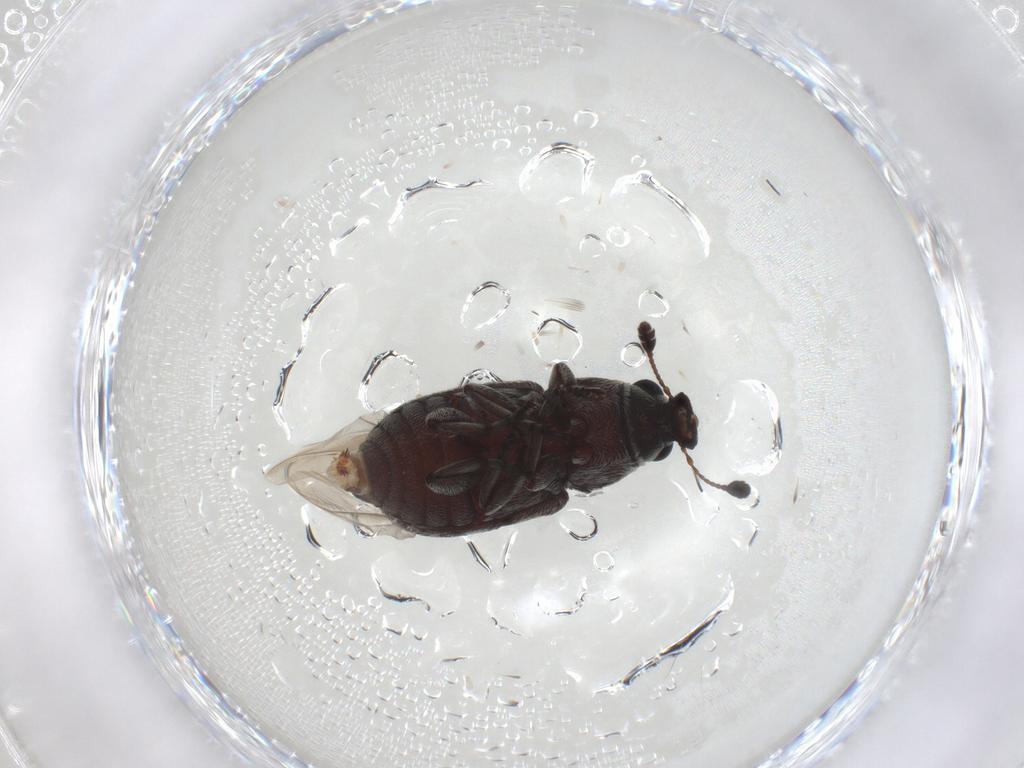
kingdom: Animalia
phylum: Arthropoda
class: Insecta
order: Coleoptera
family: Anthribidae
